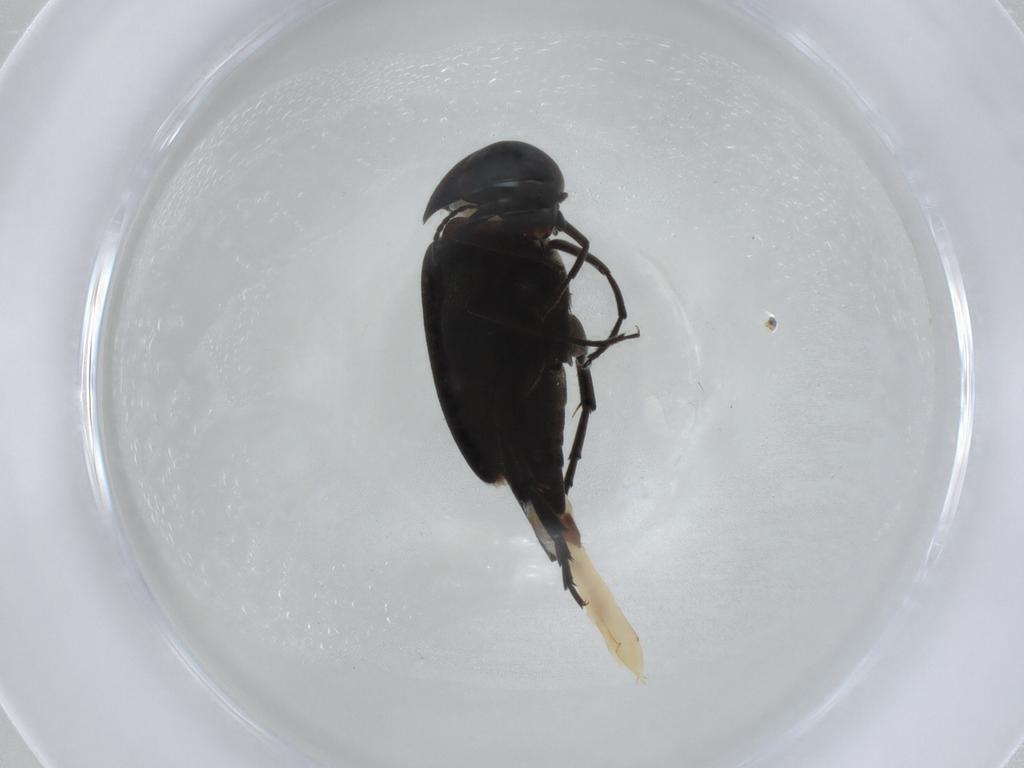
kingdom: Animalia
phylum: Arthropoda
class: Insecta
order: Coleoptera
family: Mordellidae
